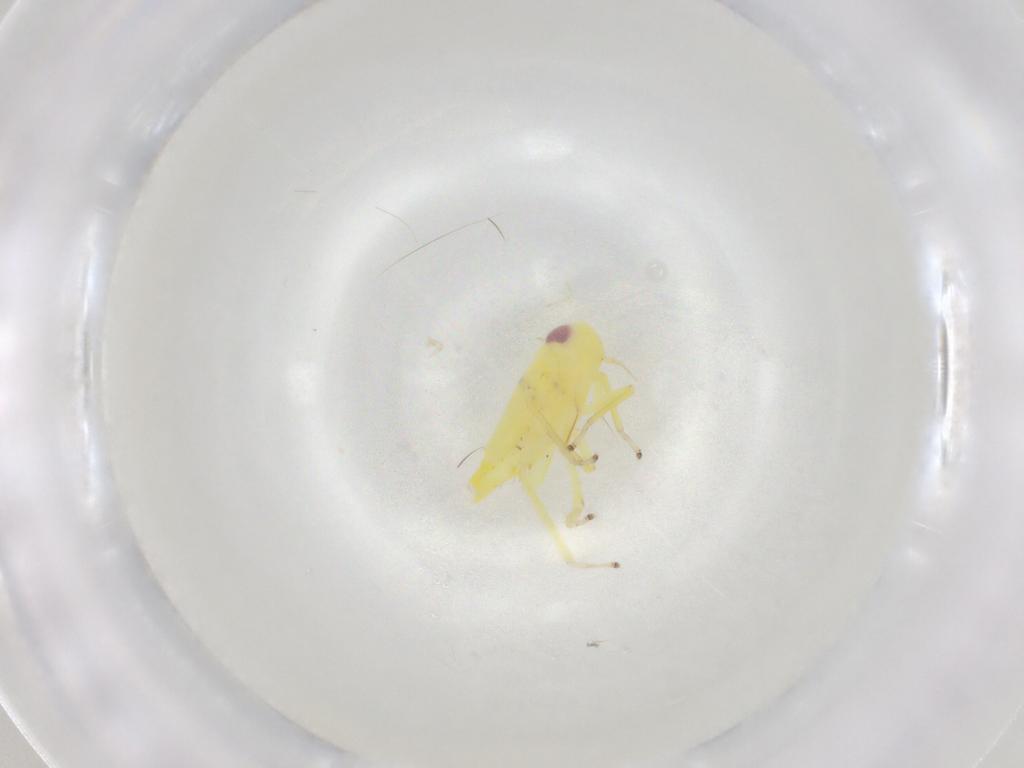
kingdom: Animalia
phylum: Arthropoda
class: Insecta
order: Hemiptera
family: Cicadellidae
